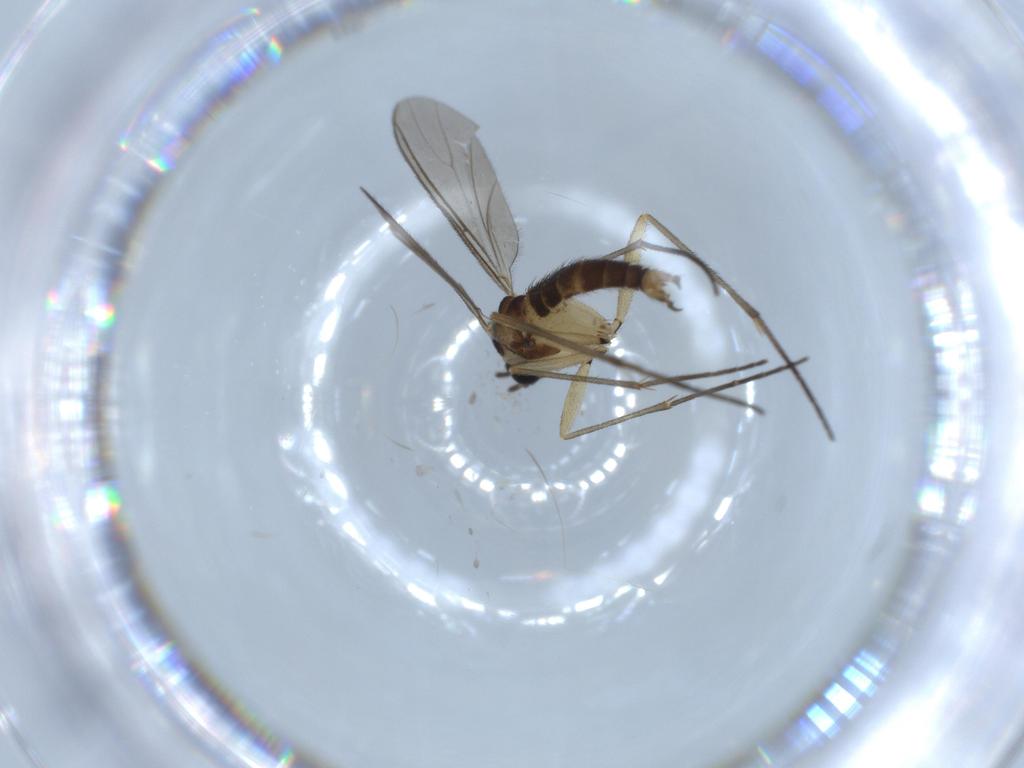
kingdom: Animalia
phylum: Arthropoda
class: Insecta
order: Diptera
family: Sciaridae
